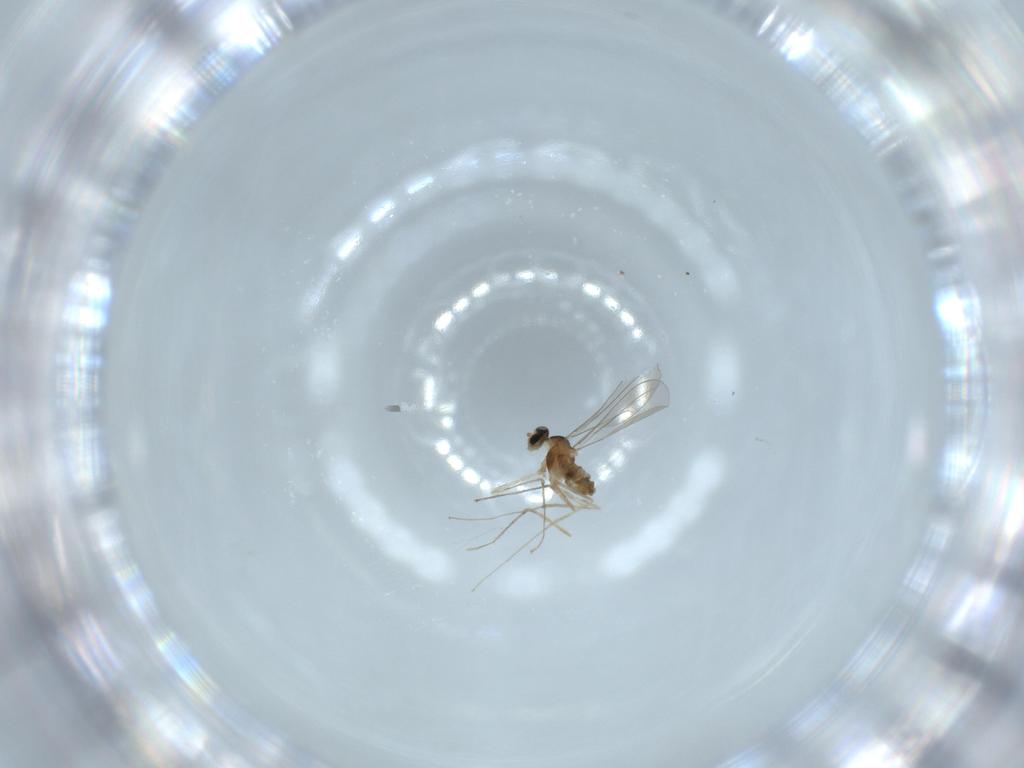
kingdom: Animalia
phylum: Arthropoda
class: Insecta
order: Diptera
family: Cecidomyiidae
